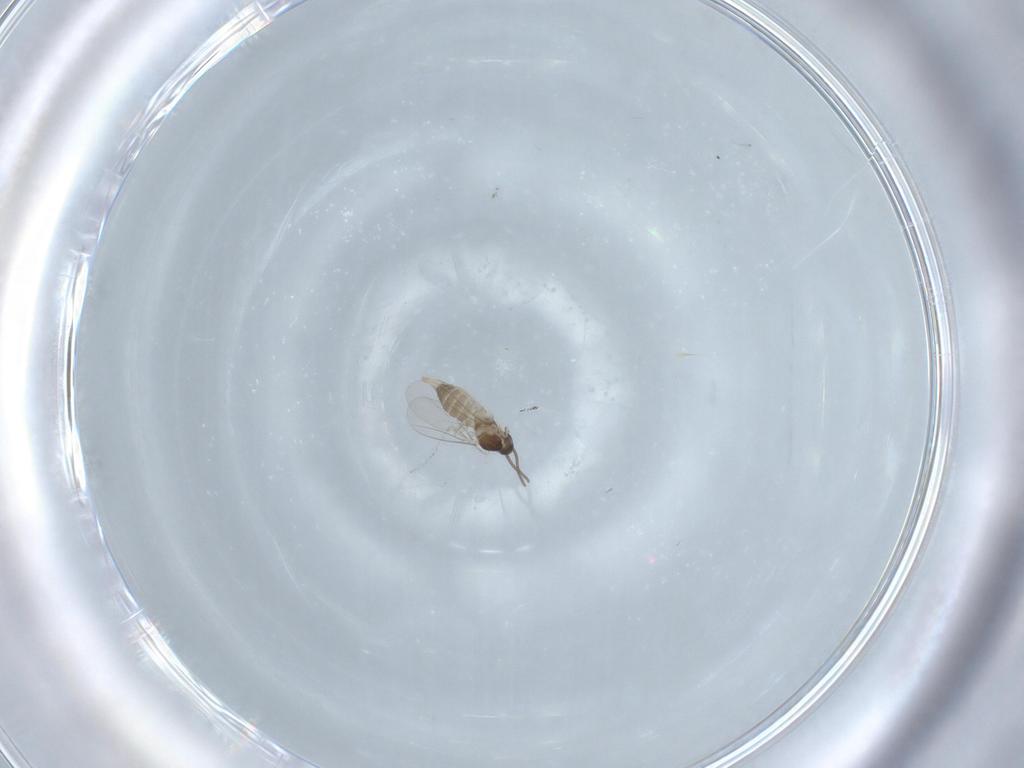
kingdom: Animalia
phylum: Arthropoda
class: Insecta
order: Diptera
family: Cecidomyiidae
